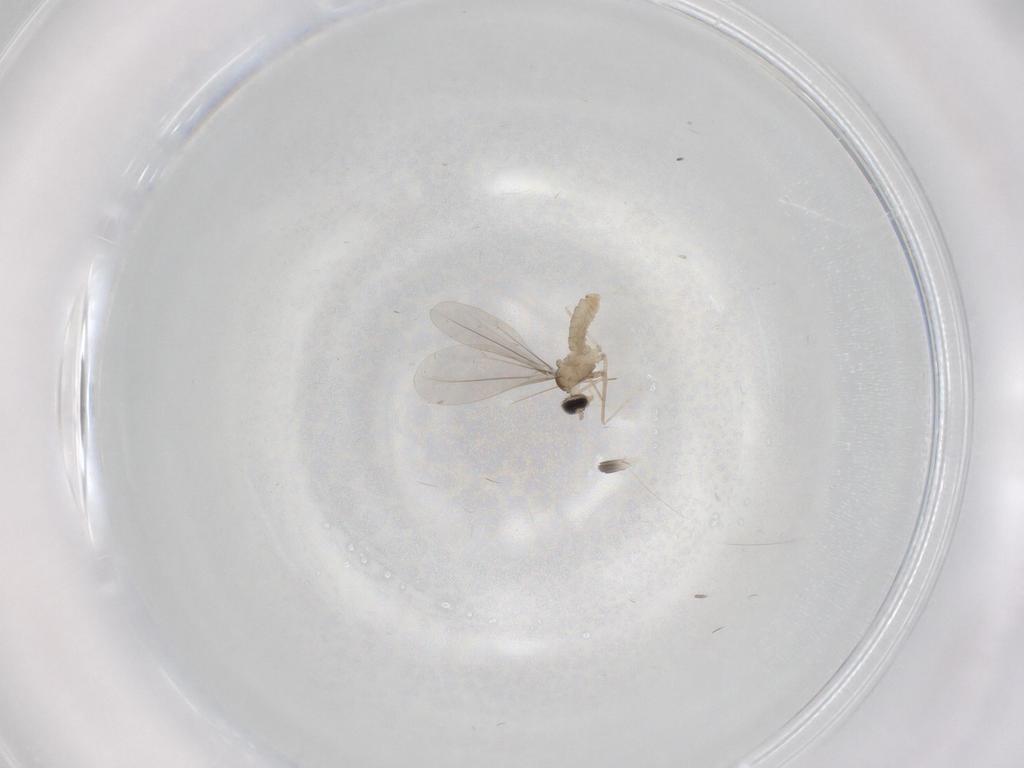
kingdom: Animalia
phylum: Arthropoda
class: Insecta
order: Diptera
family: Cecidomyiidae
